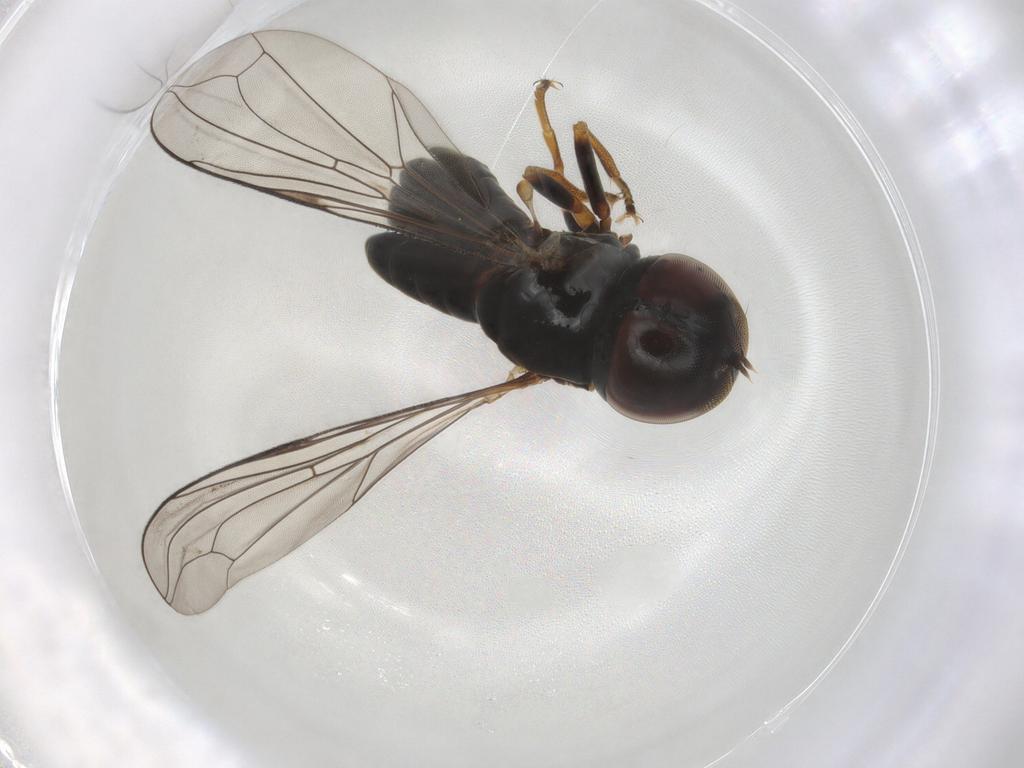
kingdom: Animalia
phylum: Arthropoda
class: Insecta
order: Diptera
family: Pipunculidae
